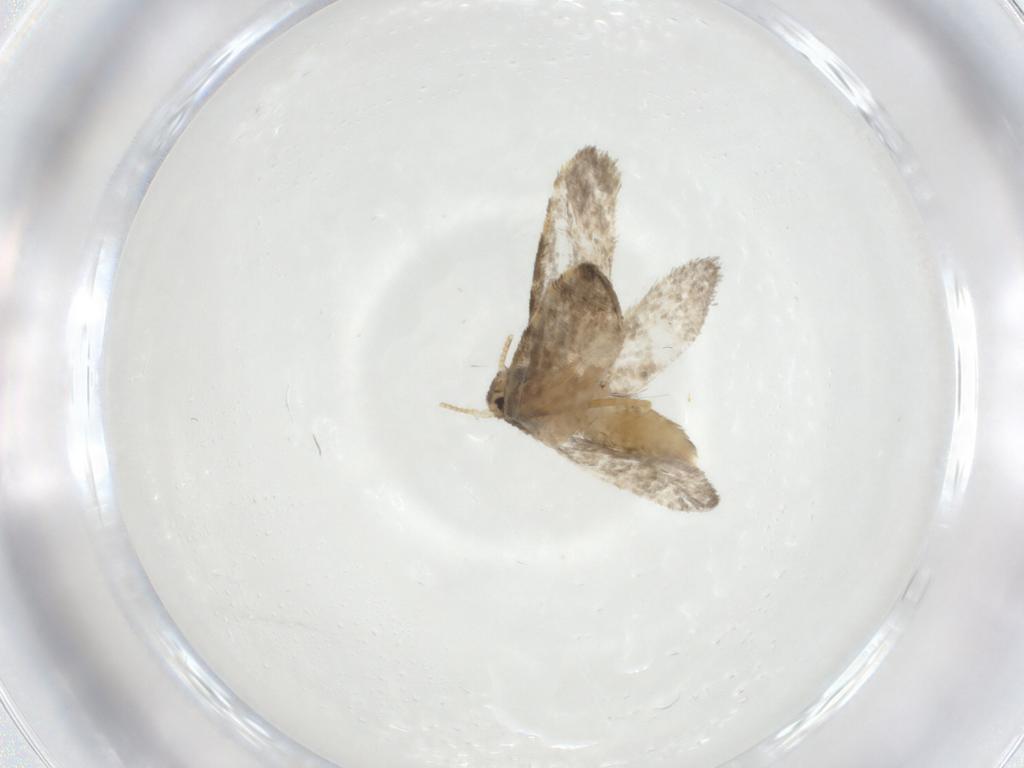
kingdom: Animalia
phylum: Arthropoda
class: Insecta
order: Lepidoptera
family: Psychidae
